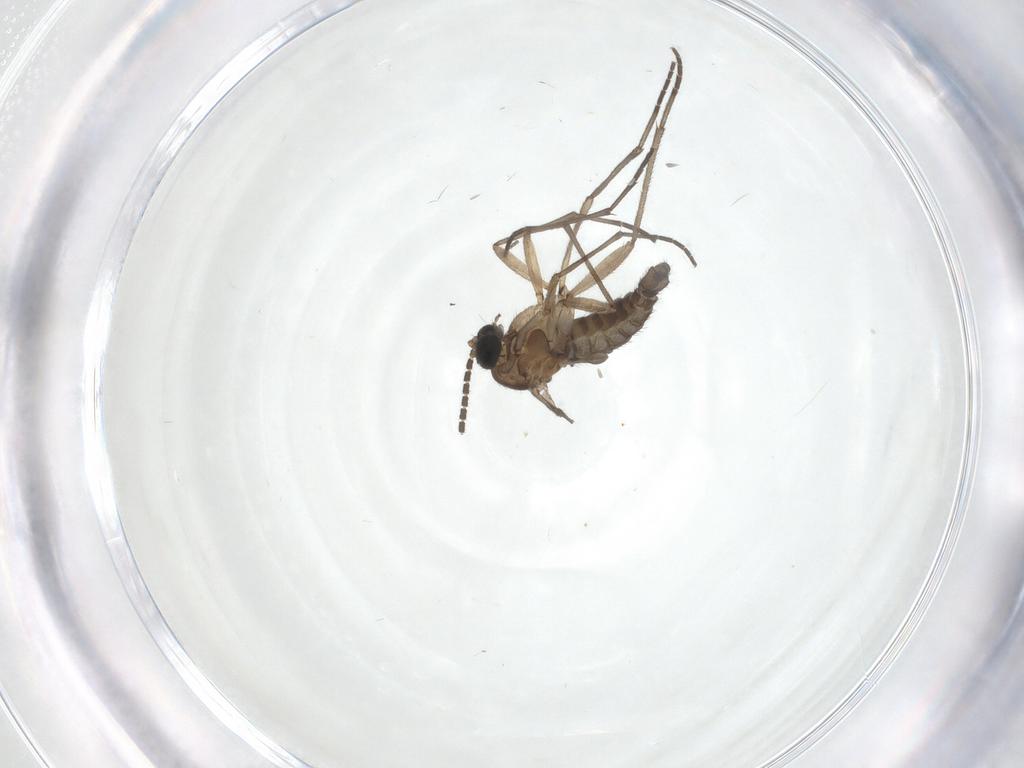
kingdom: Animalia
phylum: Arthropoda
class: Insecta
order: Diptera
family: Sciaridae
